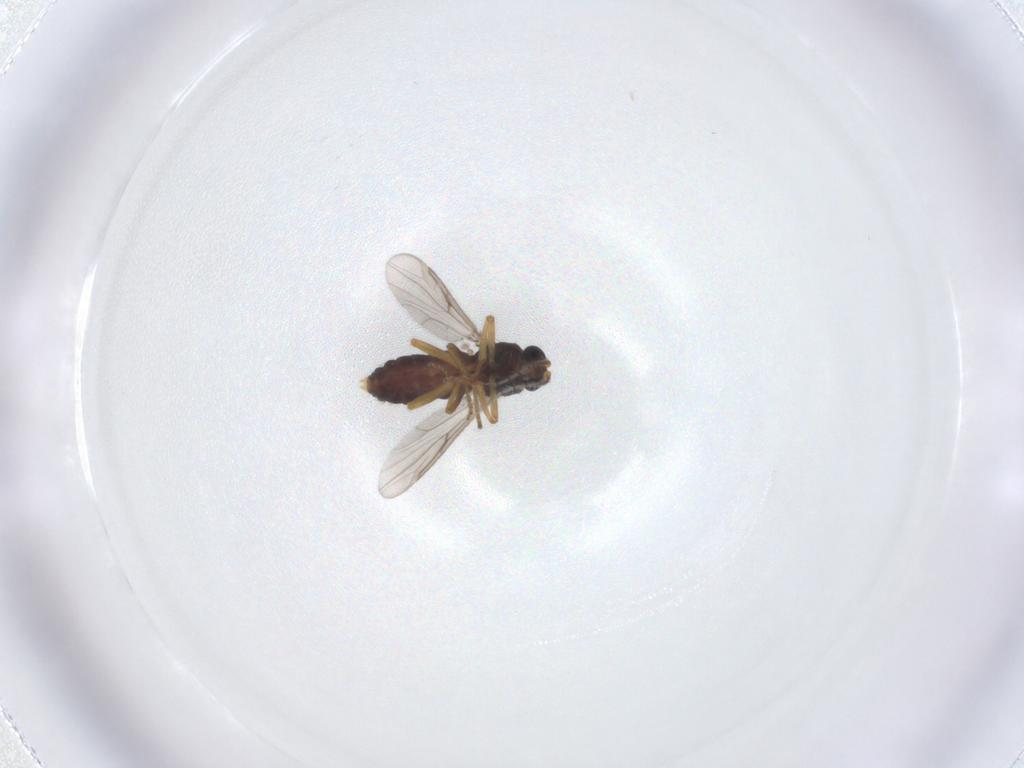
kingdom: Animalia
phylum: Arthropoda
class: Insecta
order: Diptera
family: Ceratopogonidae
